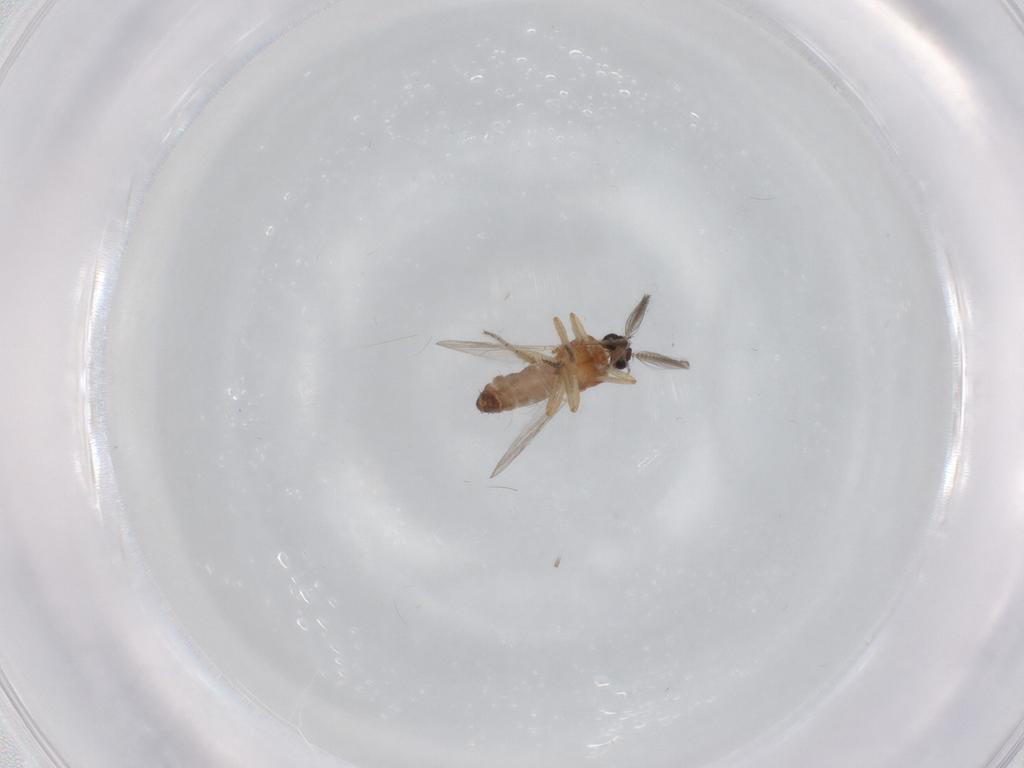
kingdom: Animalia
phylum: Arthropoda
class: Insecta
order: Diptera
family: Ceratopogonidae
